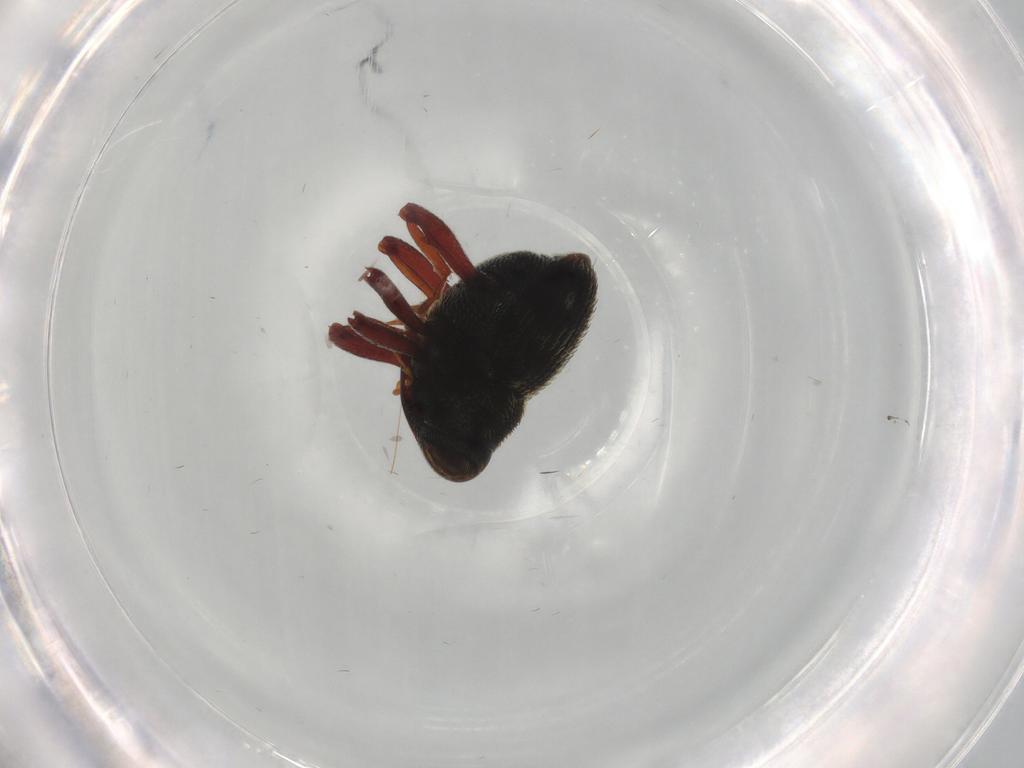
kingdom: Animalia
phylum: Arthropoda
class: Insecta
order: Coleoptera
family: Curculionidae
